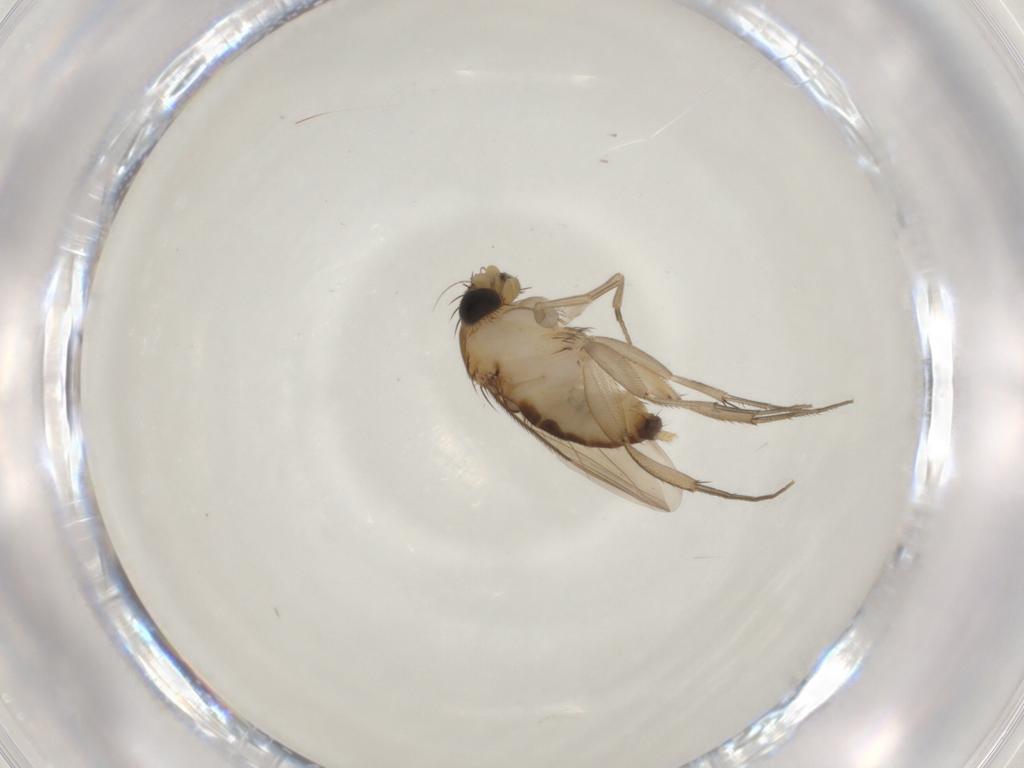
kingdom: Animalia
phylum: Arthropoda
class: Insecta
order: Diptera
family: Phoridae
